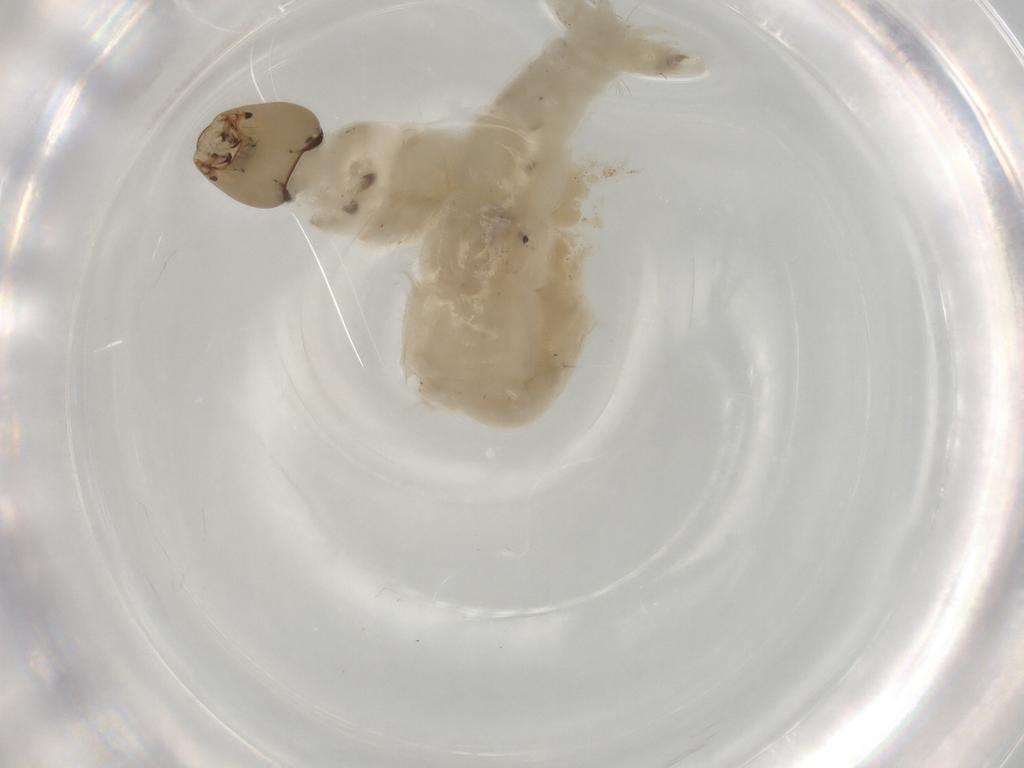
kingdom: Animalia
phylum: Arthropoda
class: Insecta
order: Diptera
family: Chironomidae
